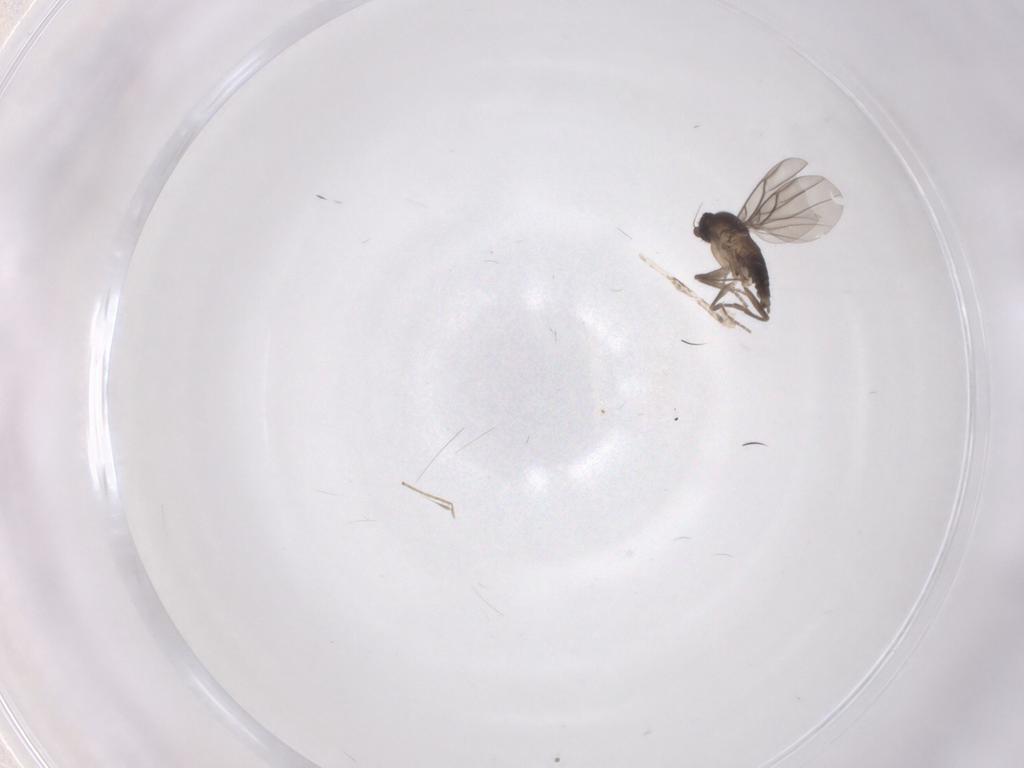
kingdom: Animalia
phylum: Arthropoda
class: Insecta
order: Diptera
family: Phoridae
